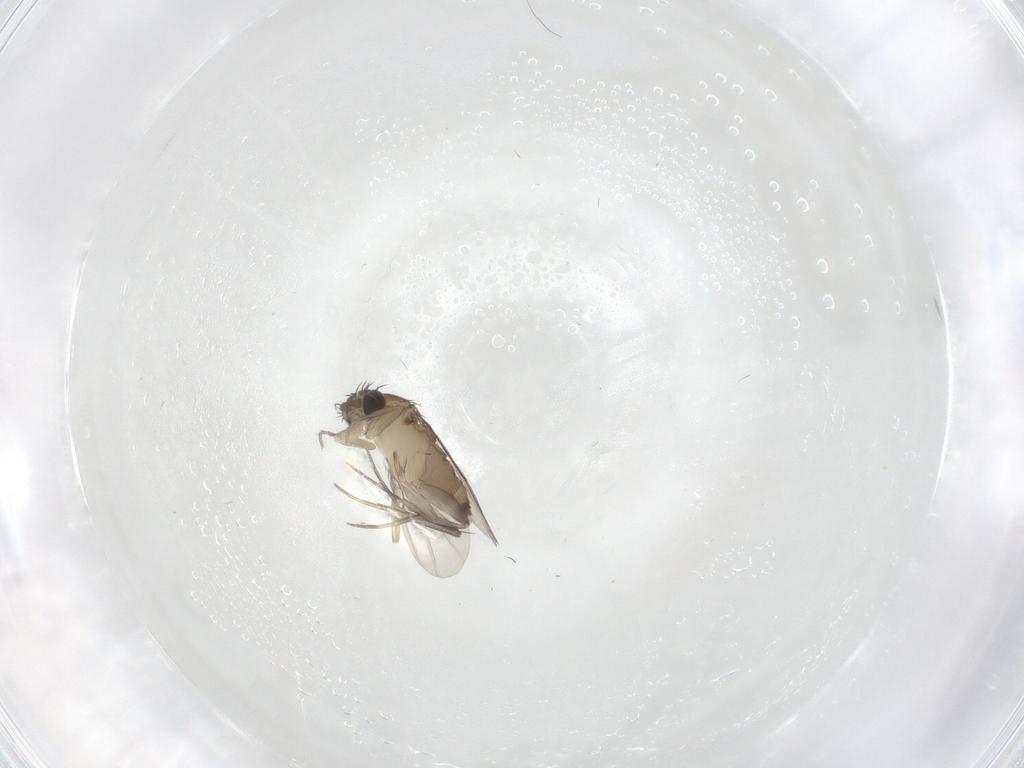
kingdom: Animalia
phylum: Arthropoda
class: Insecta
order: Diptera
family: Phoridae
